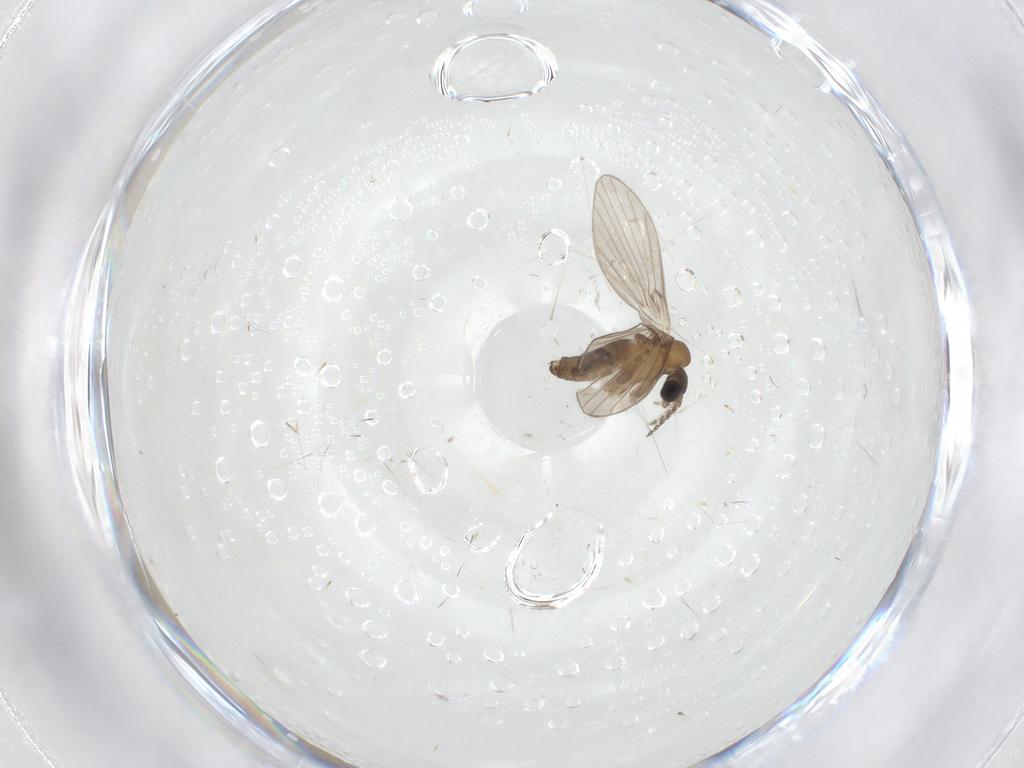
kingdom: Animalia
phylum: Arthropoda
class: Insecta
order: Diptera
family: Cecidomyiidae
